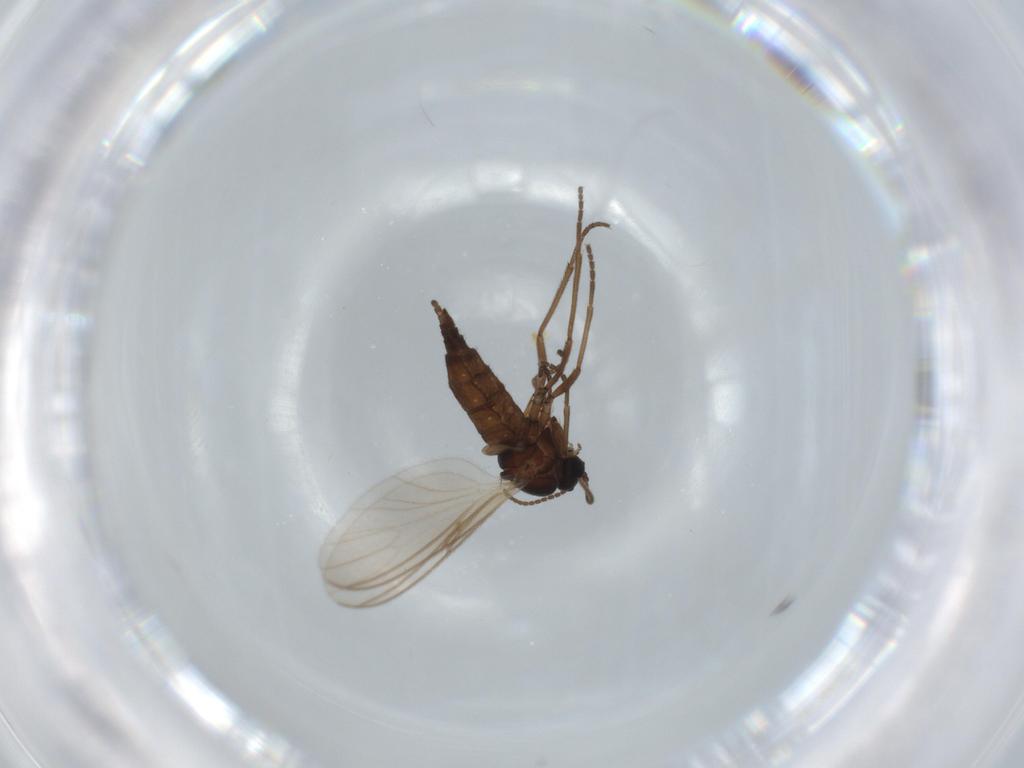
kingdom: Animalia
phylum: Arthropoda
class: Insecta
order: Diptera
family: Sciaridae
